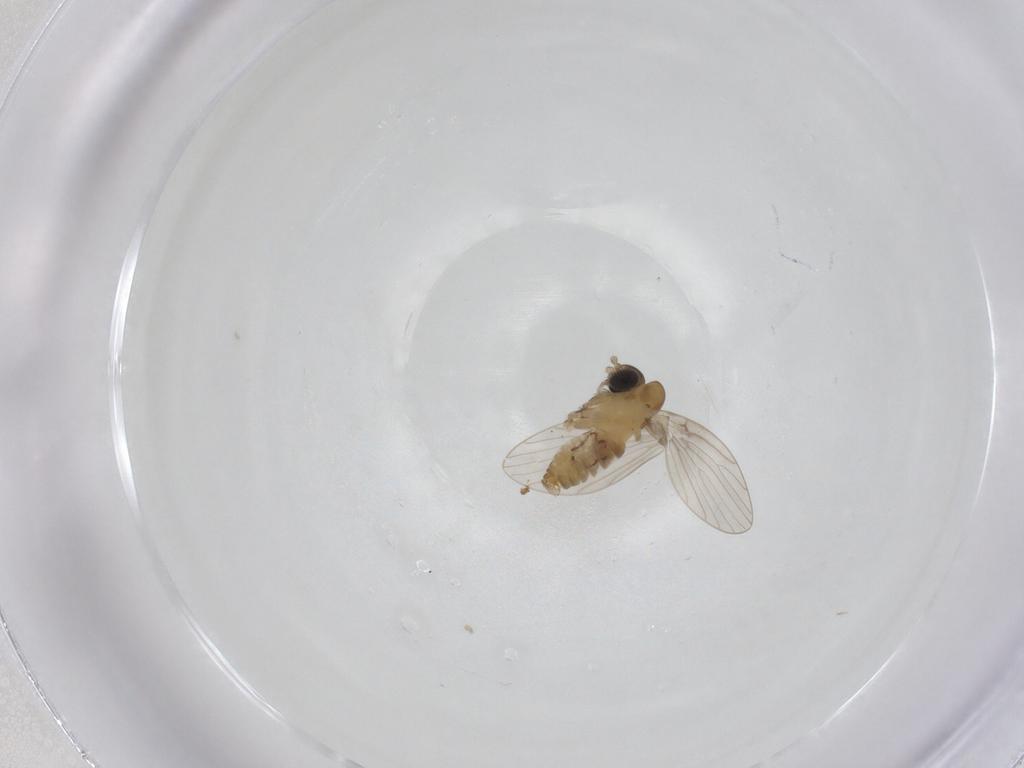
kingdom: Animalia
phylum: Arthropoda
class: Insecta
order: Diptera
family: Psychodidae
